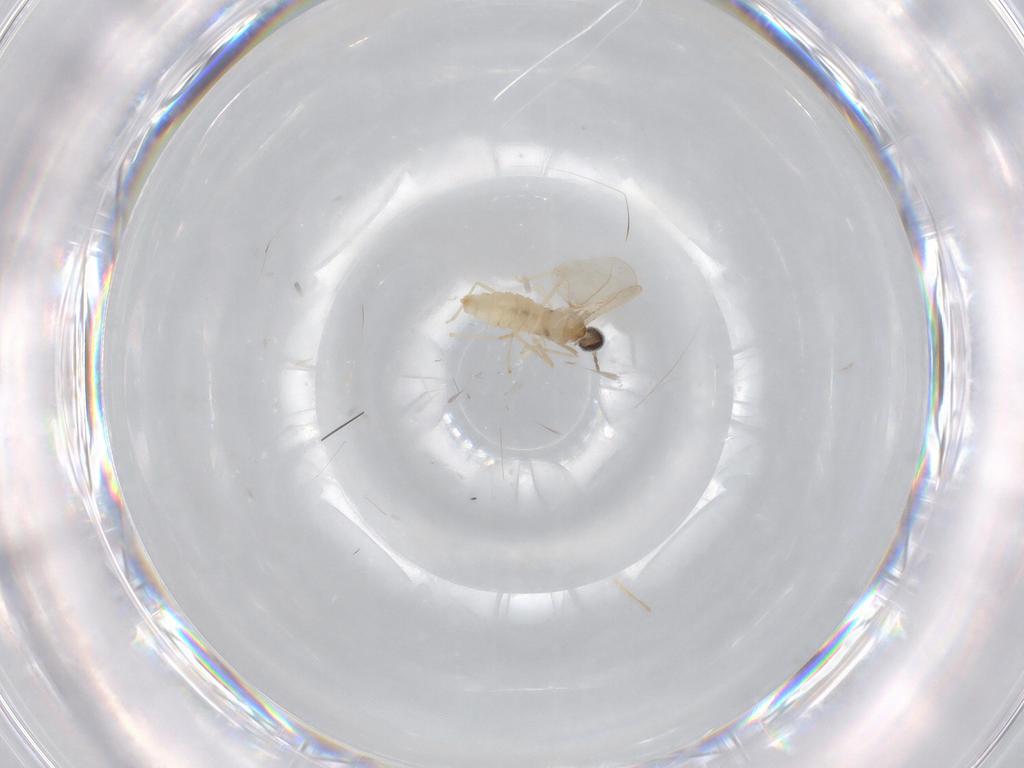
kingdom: Animalia
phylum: Arthropoda
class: Insecta
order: Diptera
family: Cecidomyiidae
